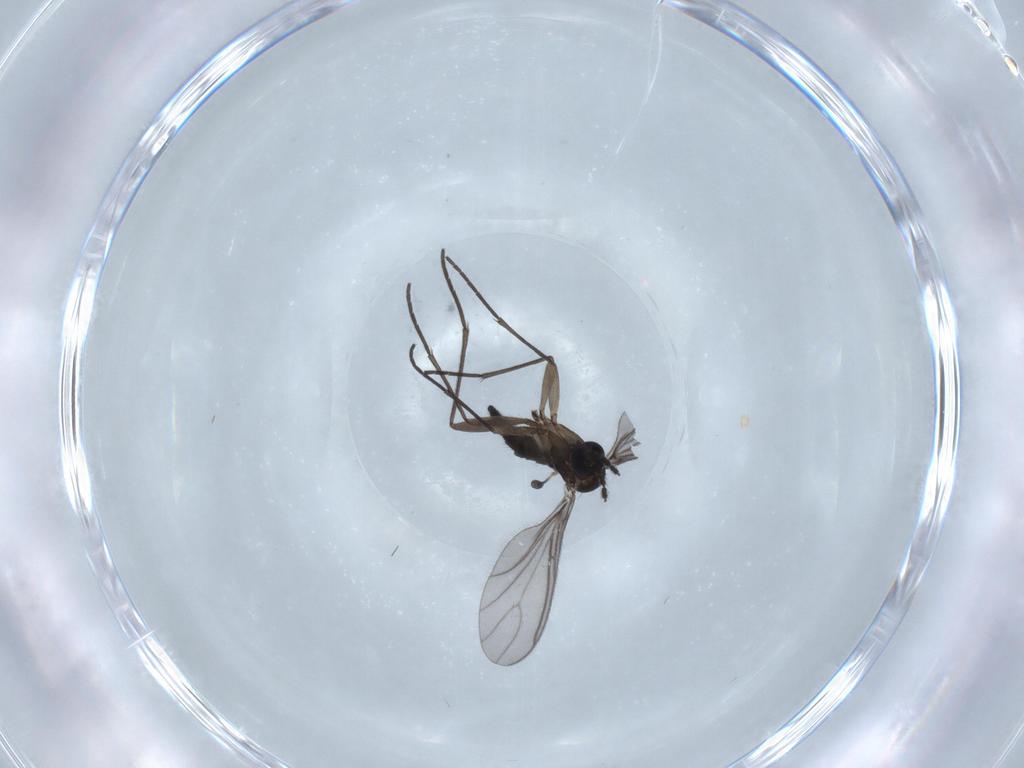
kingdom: Animalia
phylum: Arthropoda
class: Insecta
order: Diptera
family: Sciaridae
